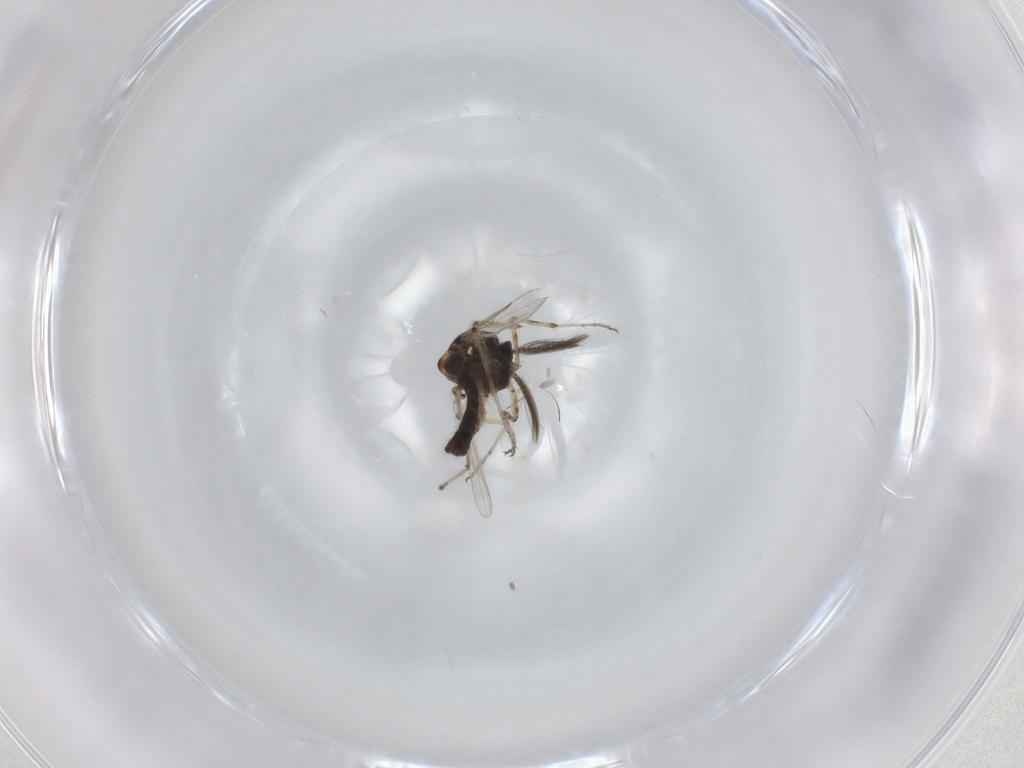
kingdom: Animalia
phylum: Arthropoda
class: Insecta
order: Diptera
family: Ceratopogonidae
